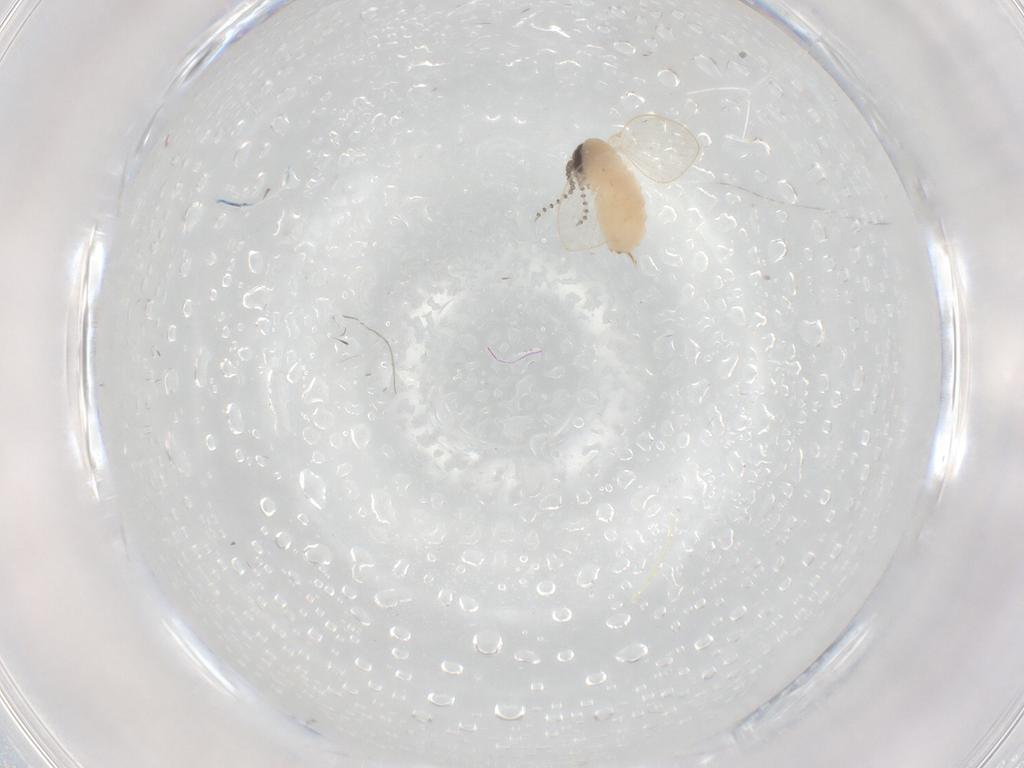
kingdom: Animalia
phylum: Arthropoda
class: Insecta
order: Diptera
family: Psychodidae
